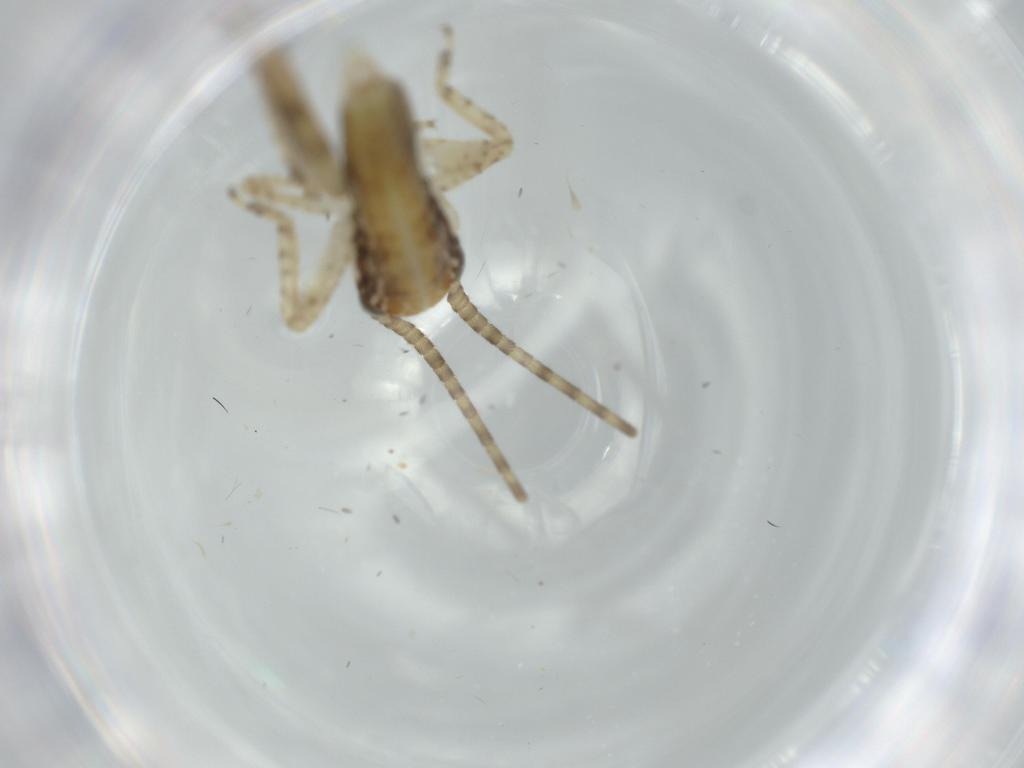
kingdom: Animalia
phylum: Arthropoda
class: Insecta
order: Orthoptera
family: Gryllidae
